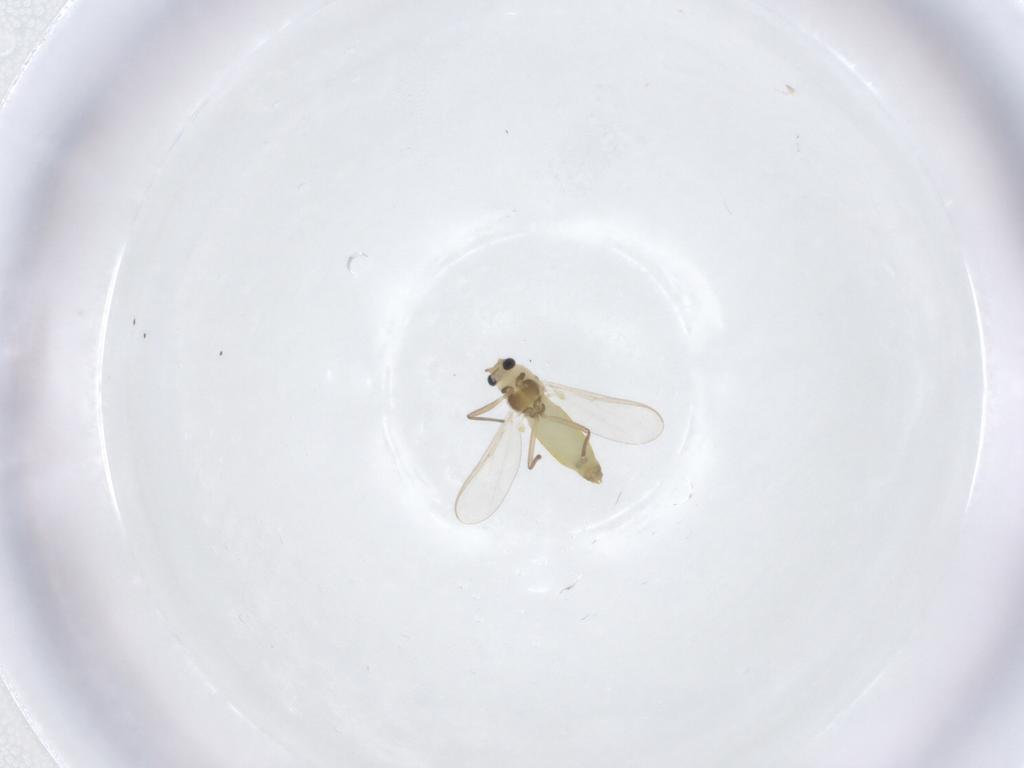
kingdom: Animalia
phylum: Arthropoda
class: Insecta
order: Diptera
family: Chironomidae
